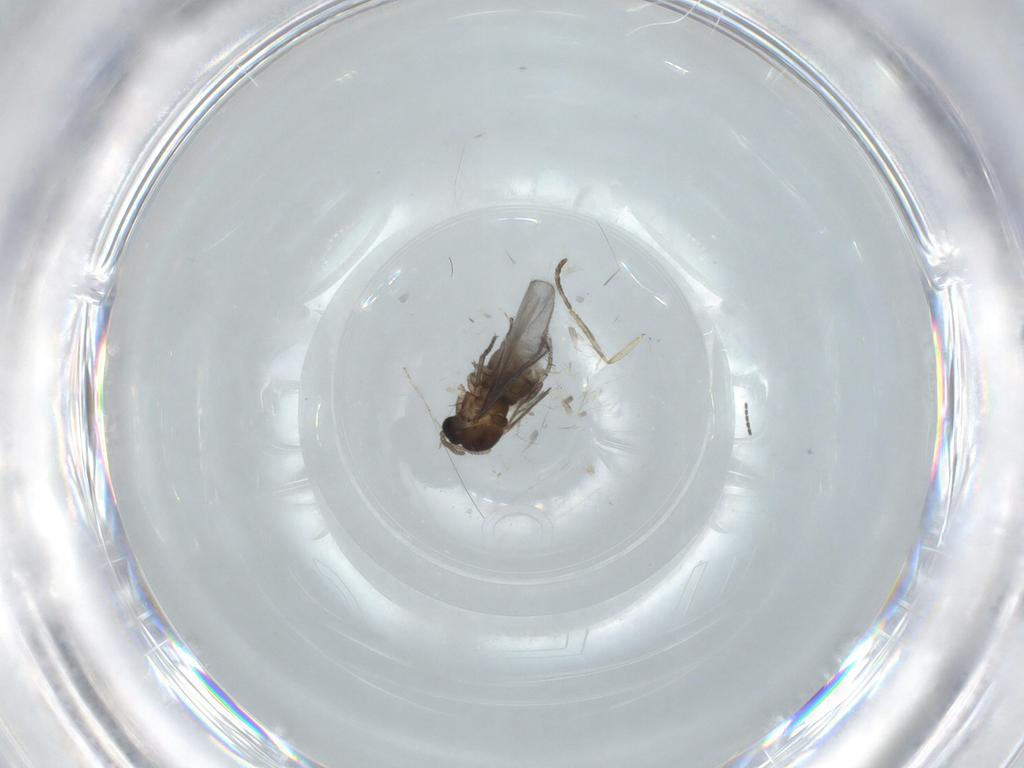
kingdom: Animalia
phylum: Arthropoda
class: Insecta
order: Diptera
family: Sciaridae
